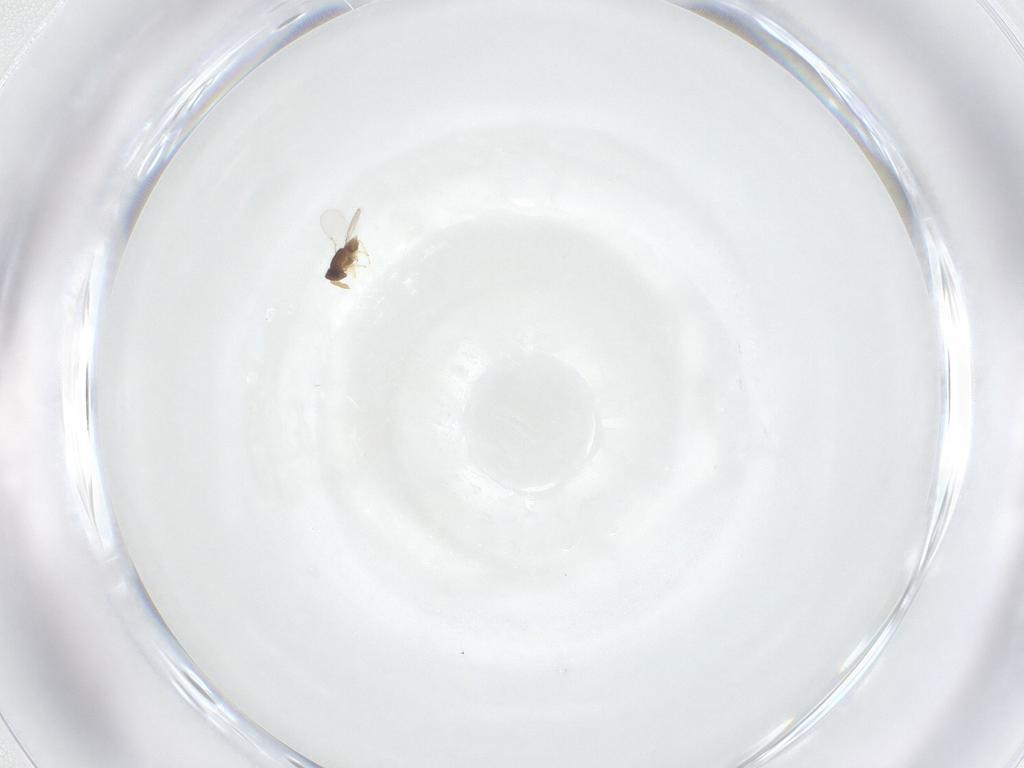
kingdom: Animalia
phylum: Arthropoda
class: Insecta
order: Hymenoptera
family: Encyrtidae
